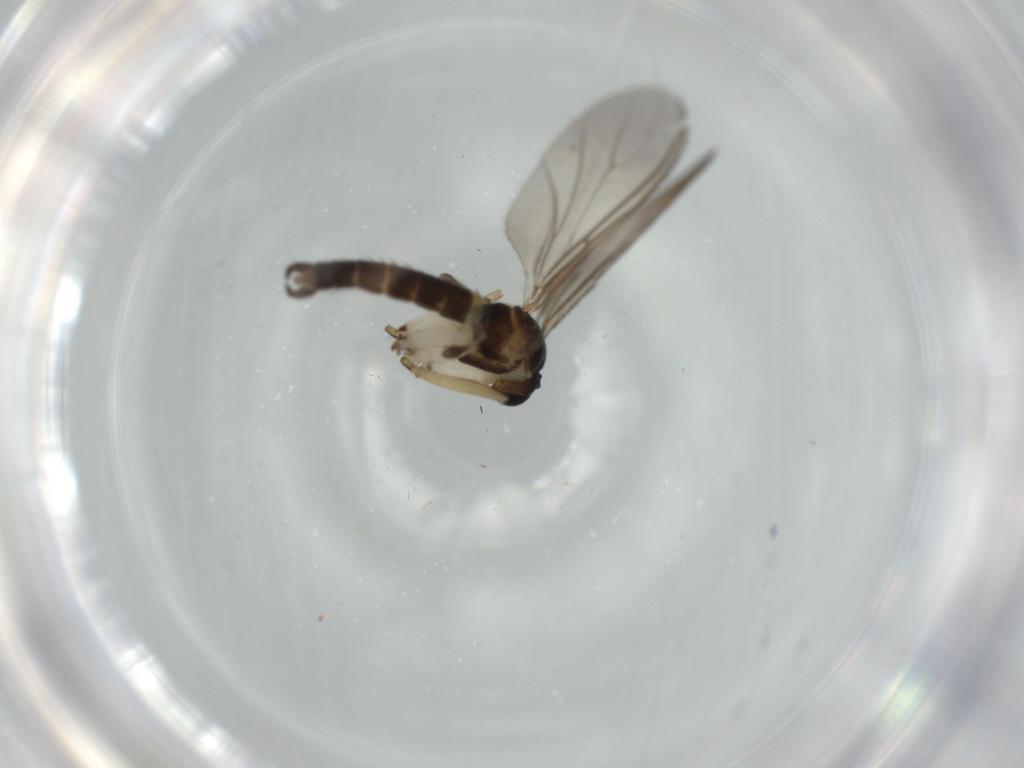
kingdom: Animalia
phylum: Arthropoda
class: Insecta
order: Diptera
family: Sciaridae
